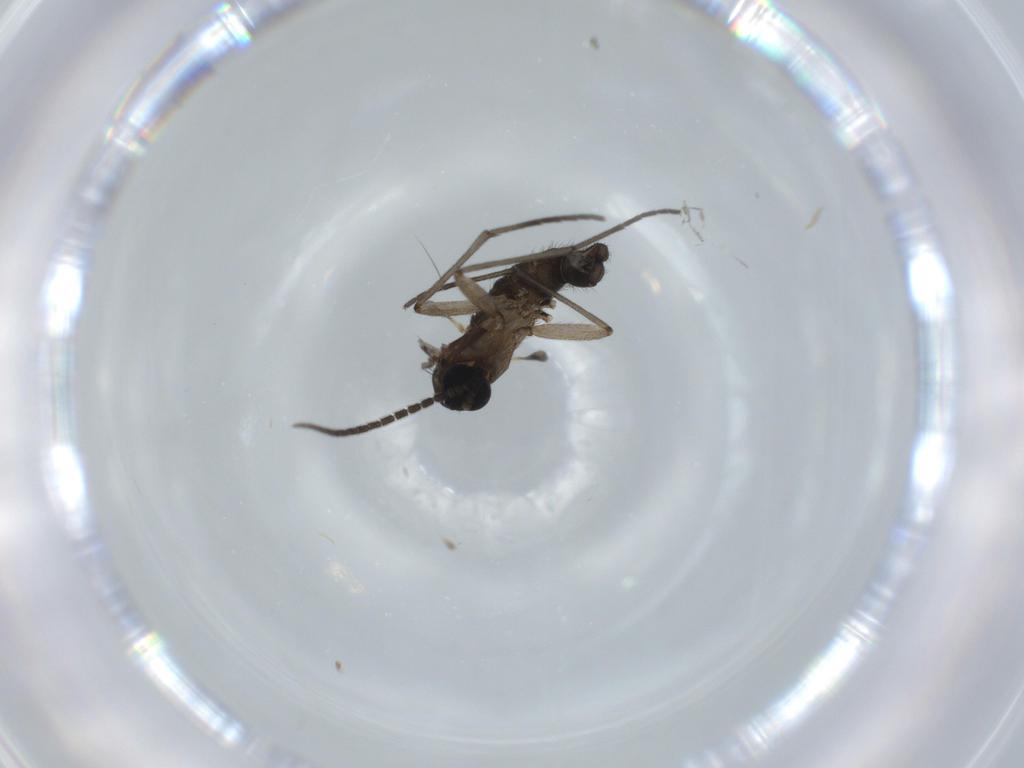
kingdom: Animalia
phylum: Arthropoda
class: Insecta
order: Diptera
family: Sciaridae
